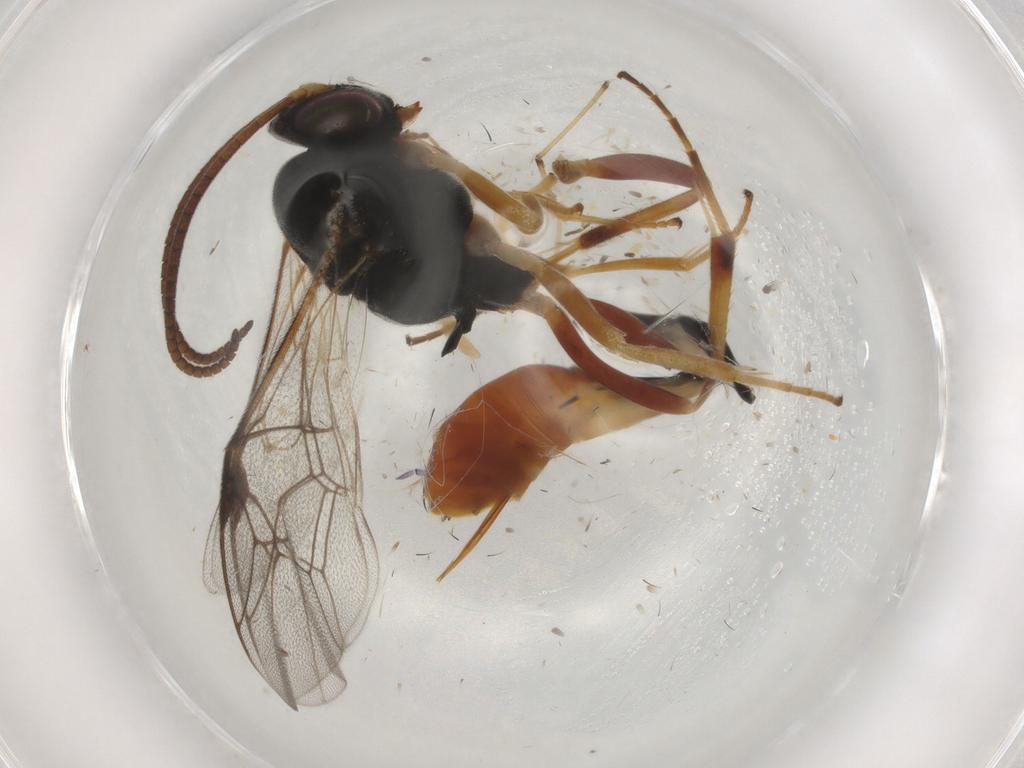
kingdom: Animalia
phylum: Arthropoda
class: Insecta
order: Hymenoptera
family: Ichneumonidae
